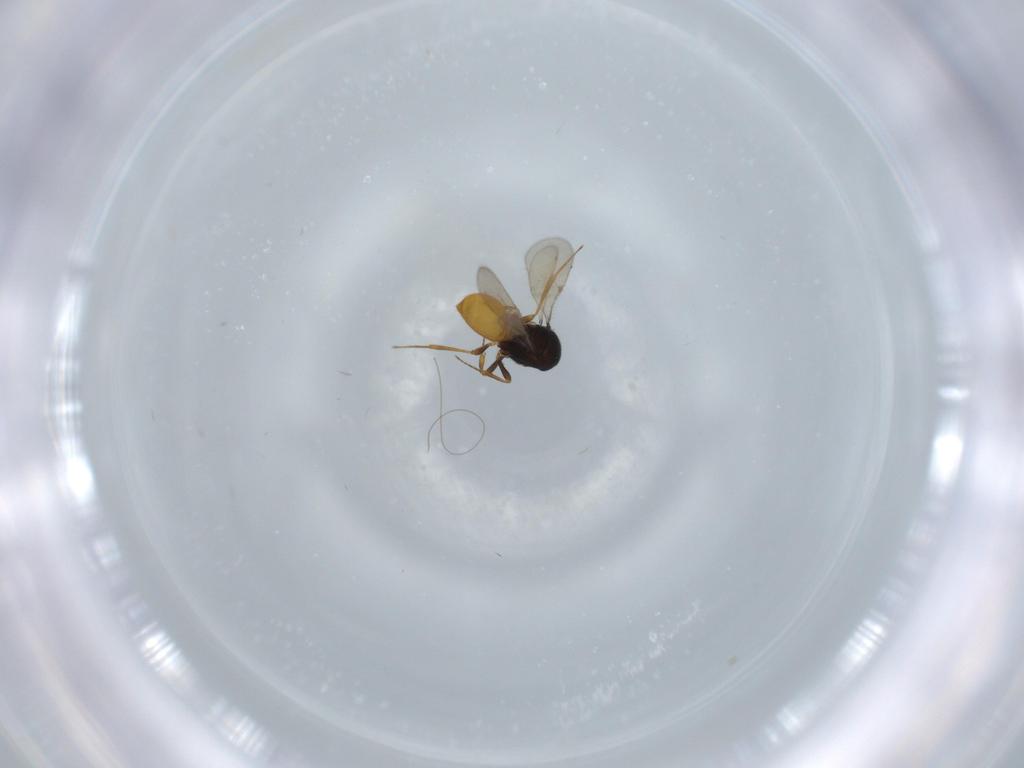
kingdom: Animalia
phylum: Arthropoda
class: Insecta
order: Hymenoptera
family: Scelionidae
